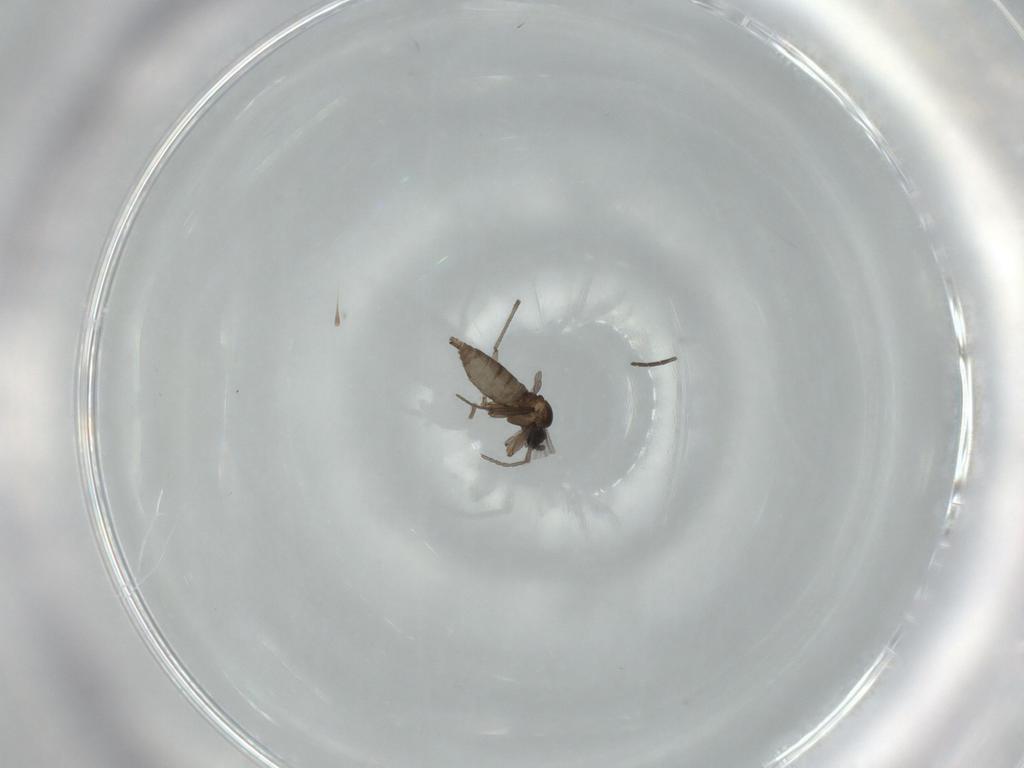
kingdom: Animalia
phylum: Arthropoda
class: Insecta
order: Diptera
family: Sciaridae
